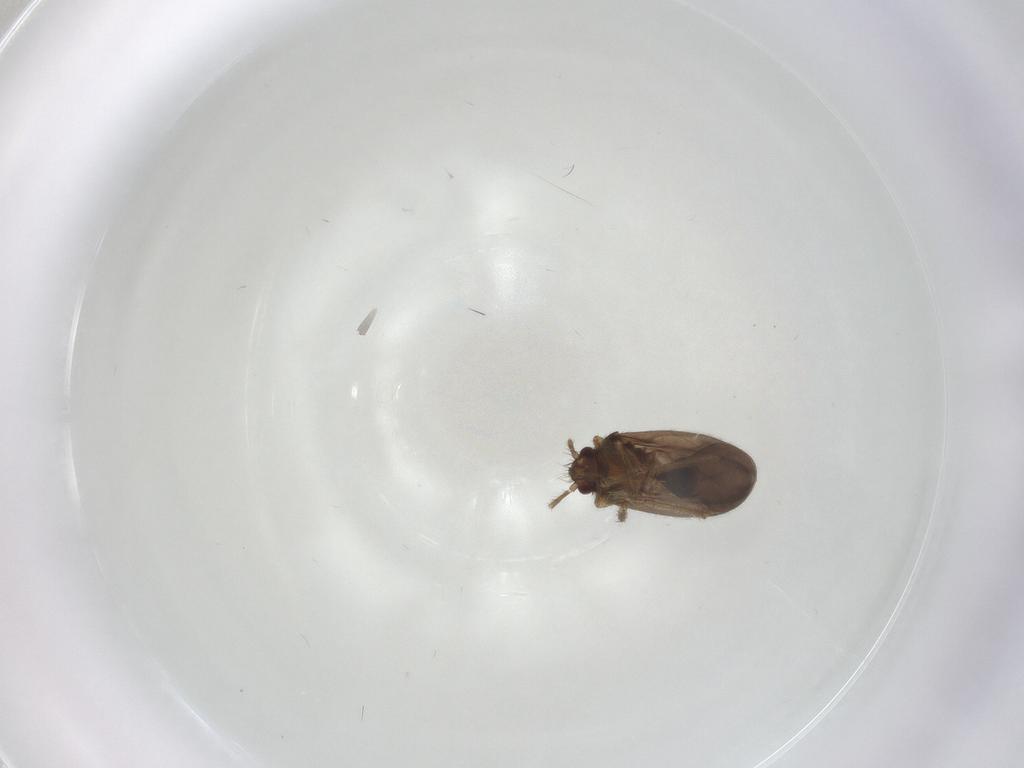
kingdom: Animalia
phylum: Arthropoda
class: Insecta
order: Hemiptera
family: Ceratocombidae
